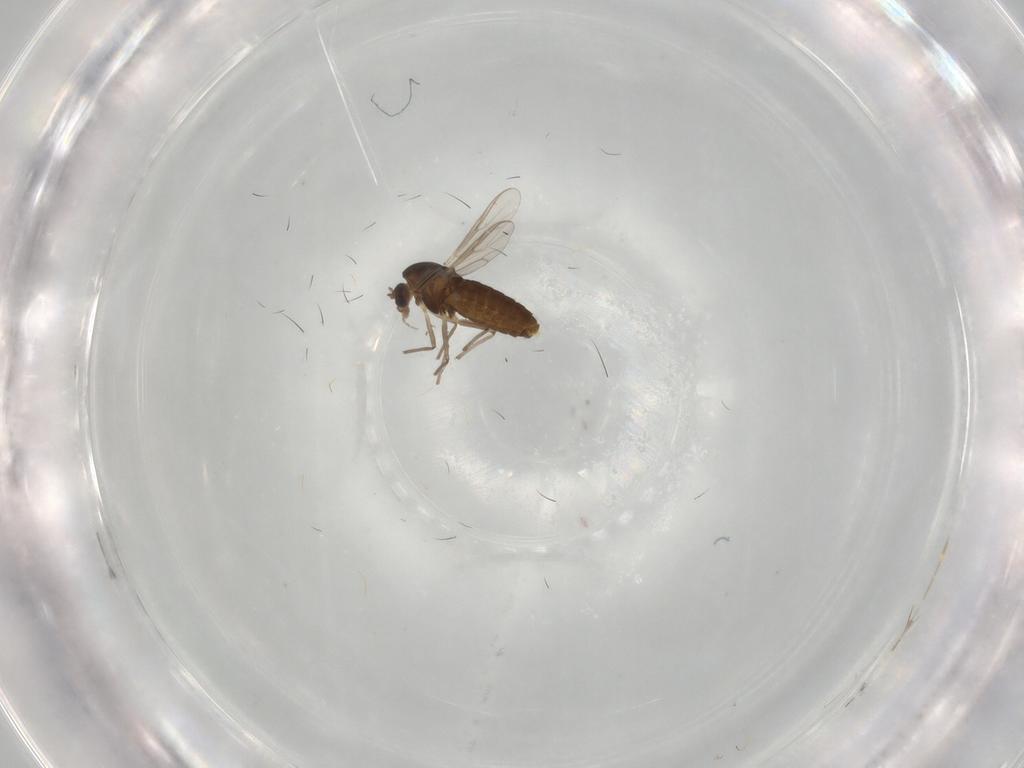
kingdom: Animalia
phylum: Arthropoda
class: Insecta
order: Diptera
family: Chironomidae
